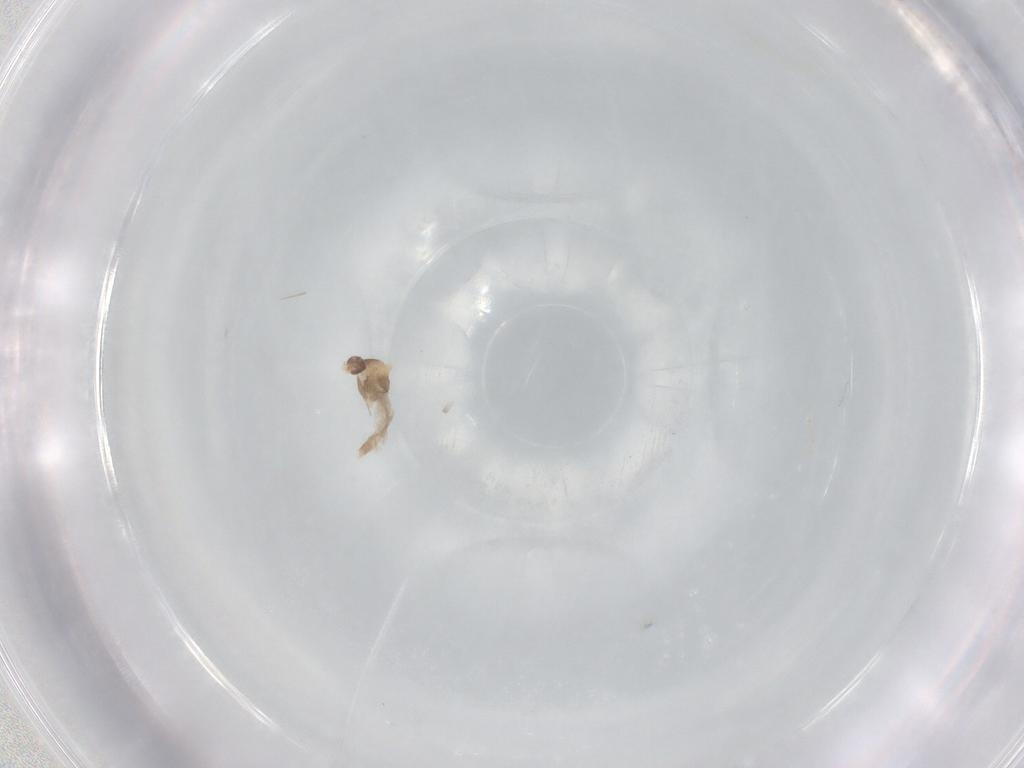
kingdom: Animalia
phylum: Arthropoda
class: Insecta
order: Diptera
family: Cecidomyiidae
